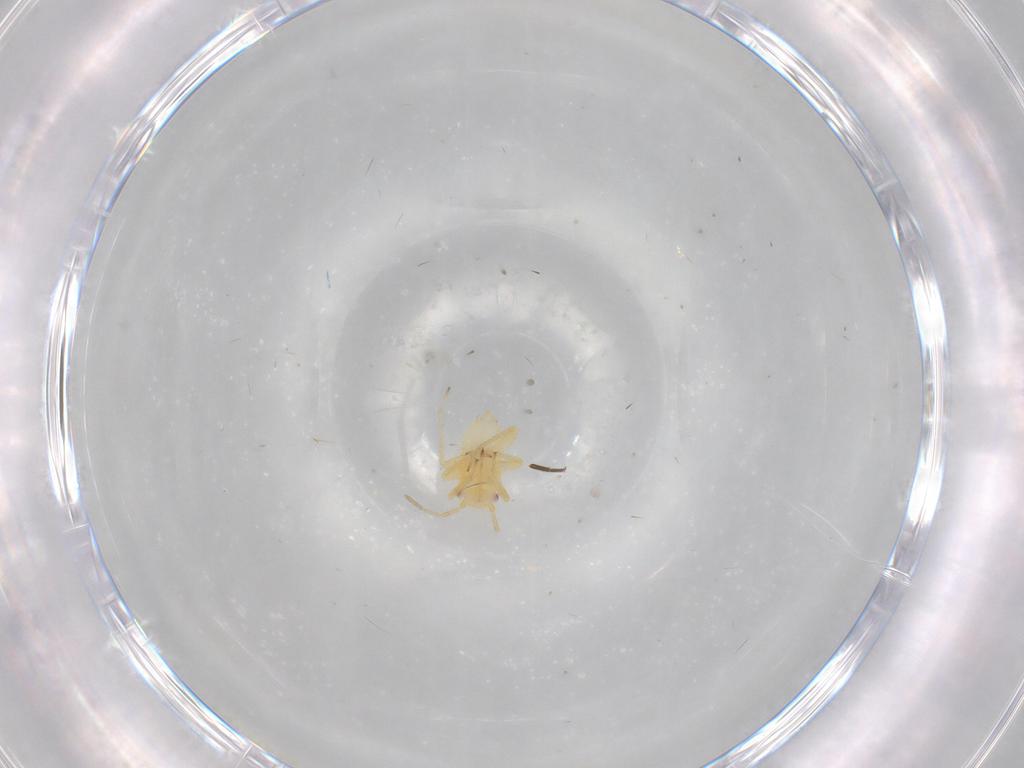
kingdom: Animalia
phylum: Arthropoda
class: Insecta
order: Hemiptera
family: Miridae
